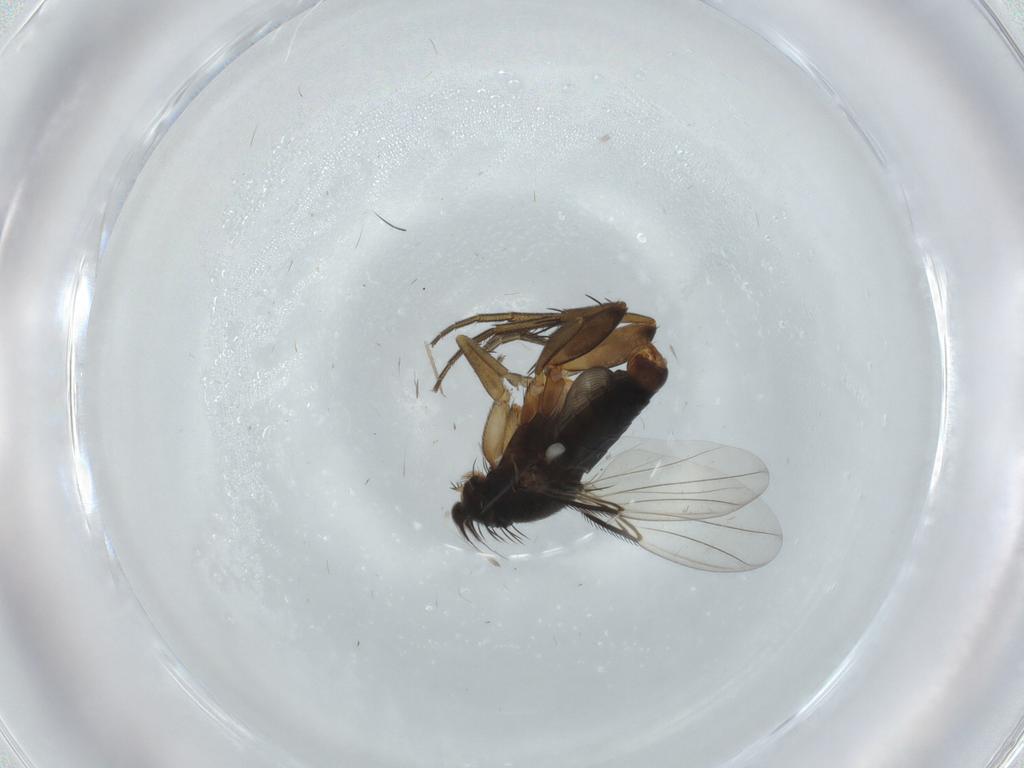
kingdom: Animalia
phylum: Arthropoda
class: Insecta
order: Diptera
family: Phoridae
